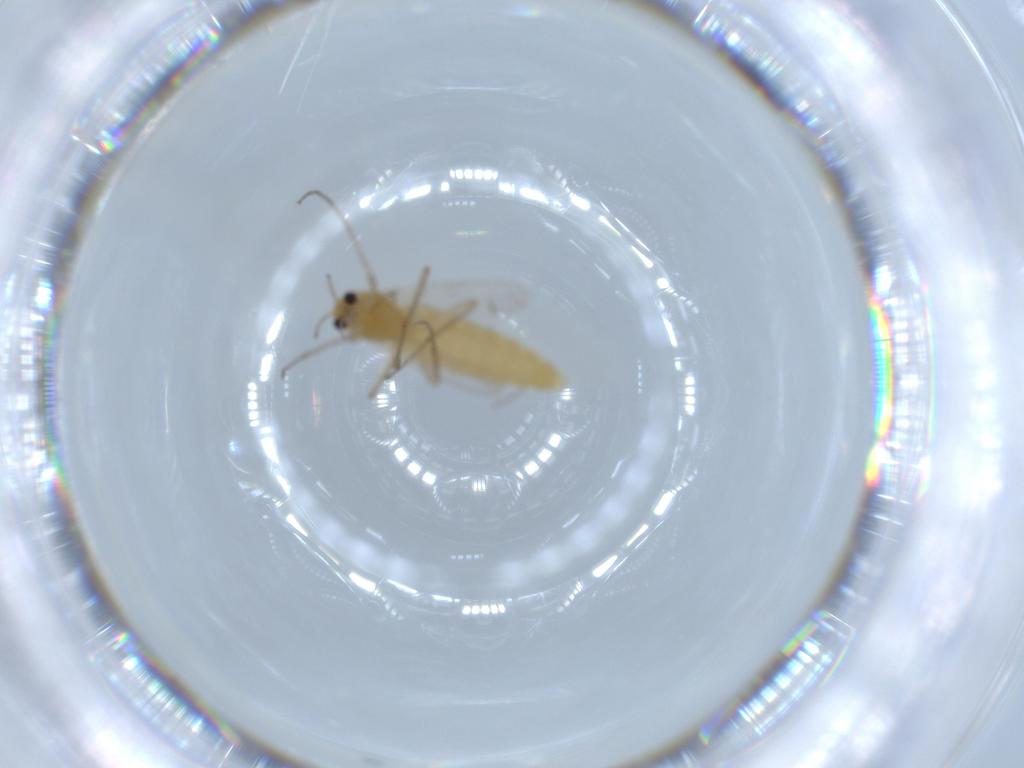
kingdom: Animalia
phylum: Arthropoda
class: Insecta
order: Diptera
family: Chironomidae
